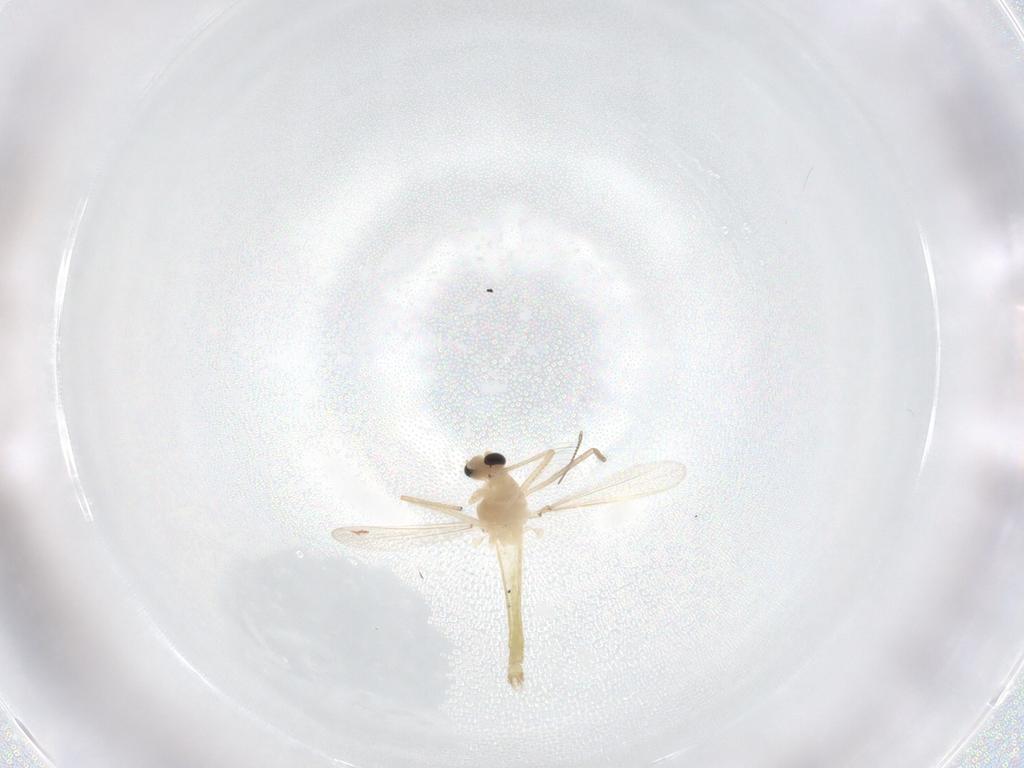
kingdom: Animalia
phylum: Arthropoda
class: Insecta
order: Diptera
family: Chironomidae
